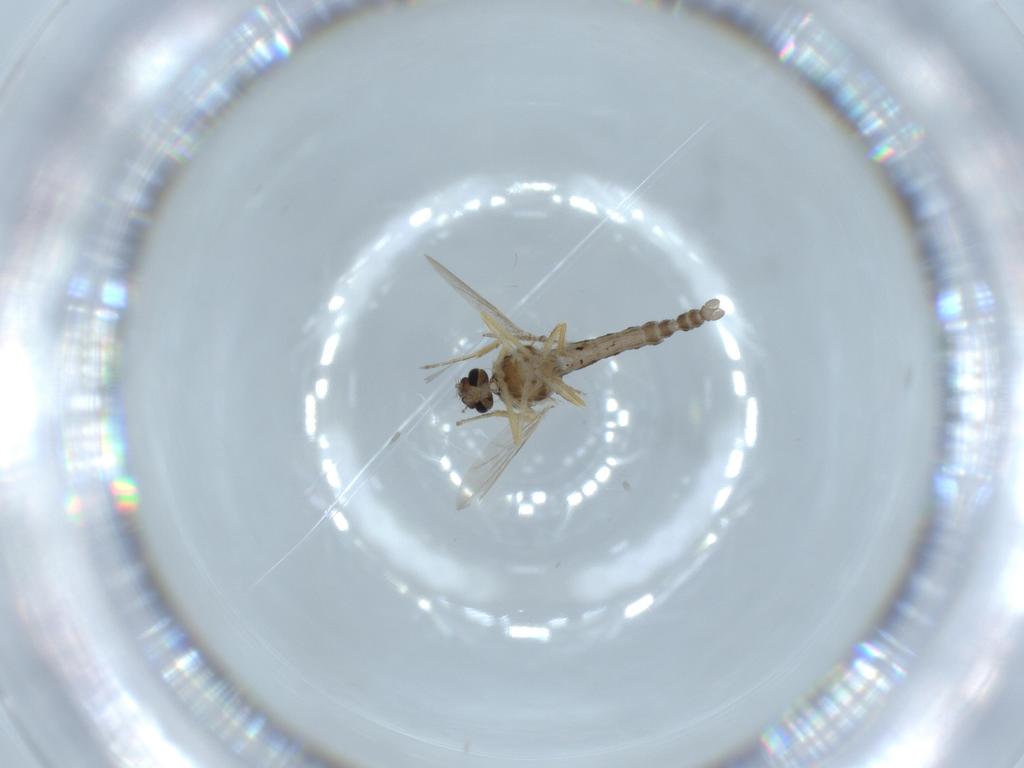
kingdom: Animalia
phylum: Arthropoda
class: Insecta
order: Diptera
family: Ceratopogonidae
